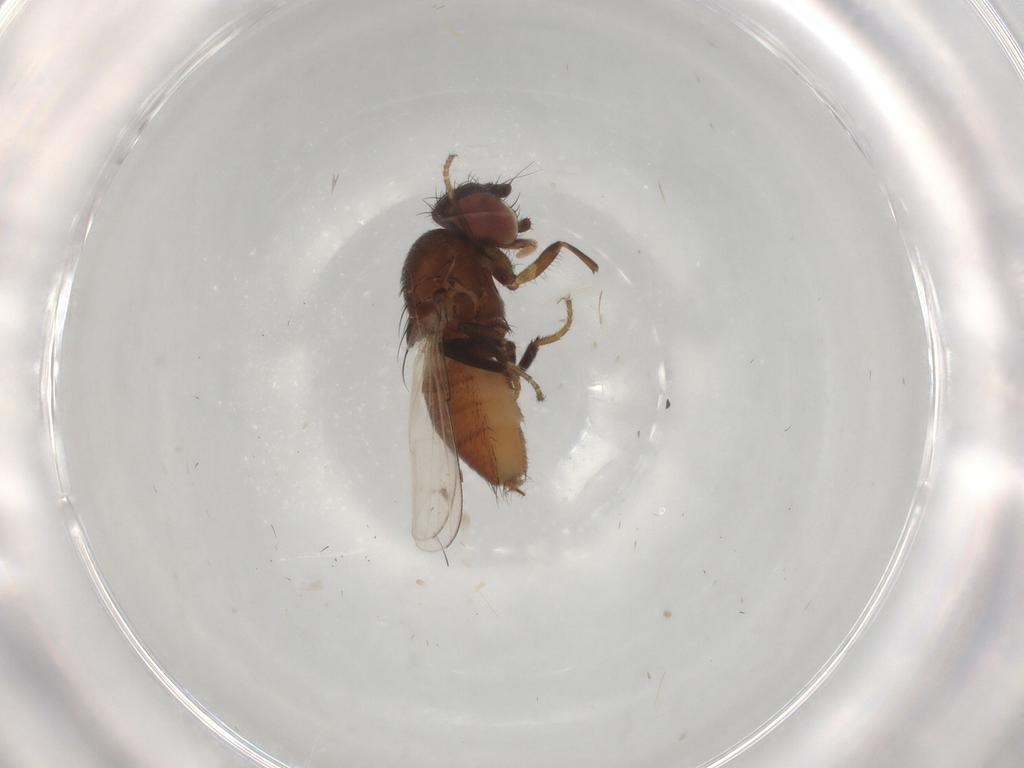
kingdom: Animalia
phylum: Arthropoda
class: Insecta
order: Diptera
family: Milichiidae
